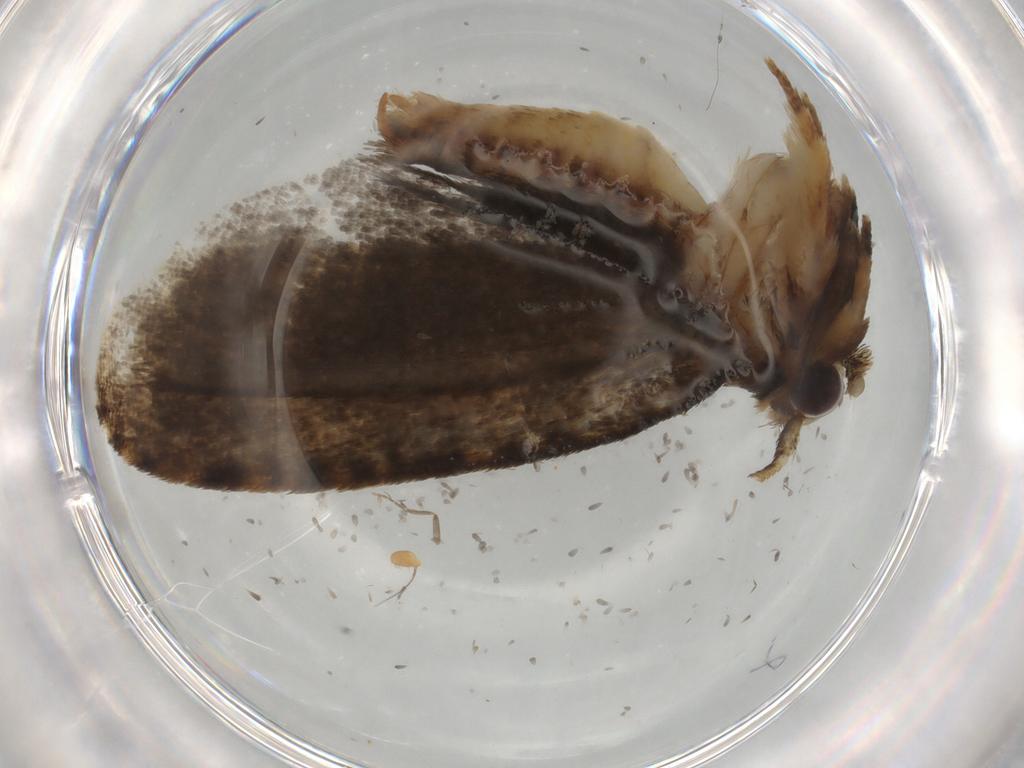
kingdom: Animalia
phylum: Arthropoda
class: Insecta
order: Lepidoptera
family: Tineidae
